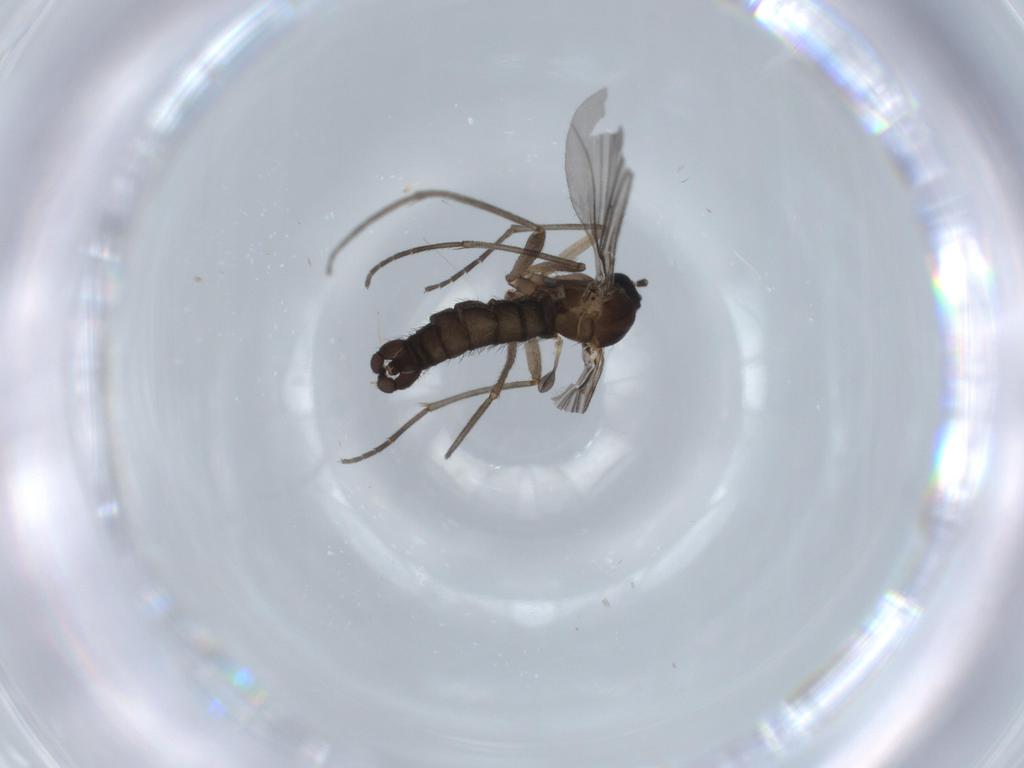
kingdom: Animalia
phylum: Arthropoda
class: Insecta
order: Diptera
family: Sciaridae
